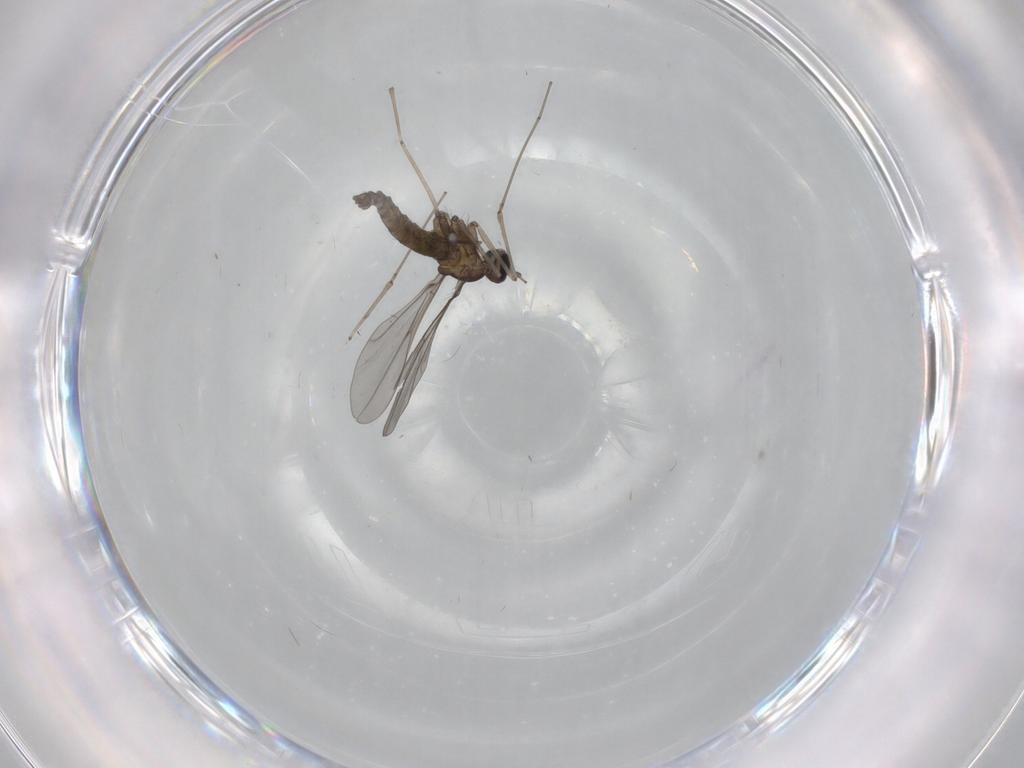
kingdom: Animalia
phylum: Arthropoda
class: Insecta
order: Diptera
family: Ceratopogonidae
